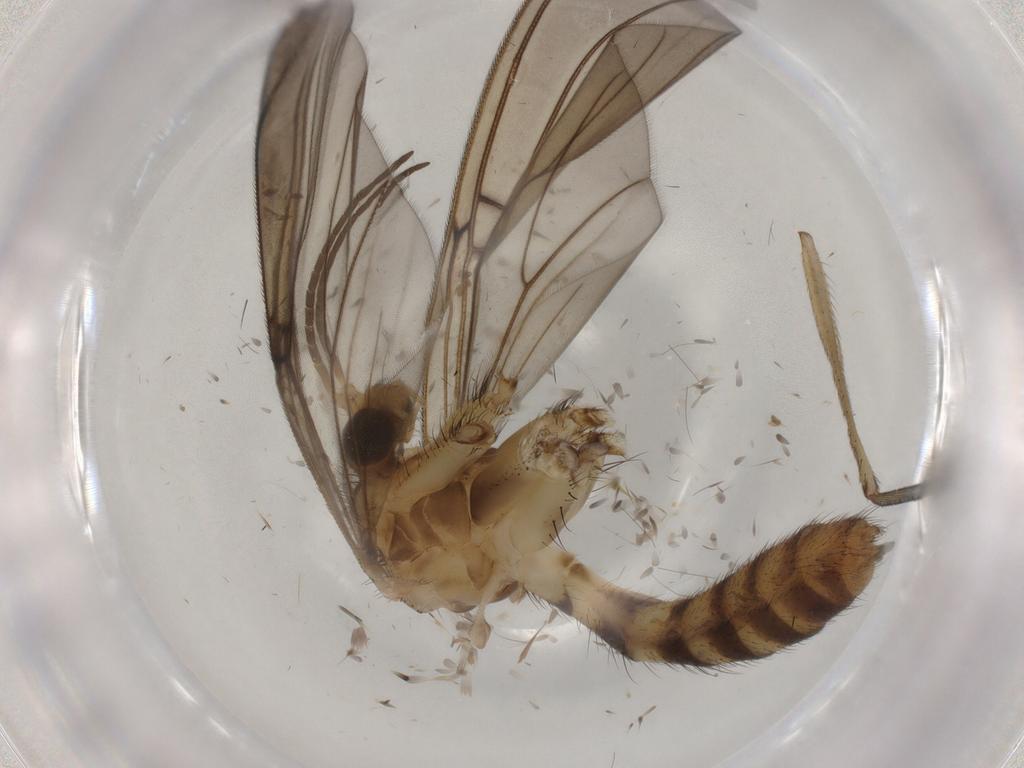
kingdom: Animalia
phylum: Arthropoda
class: Insecta
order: Diptera
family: Mycetophilidae
